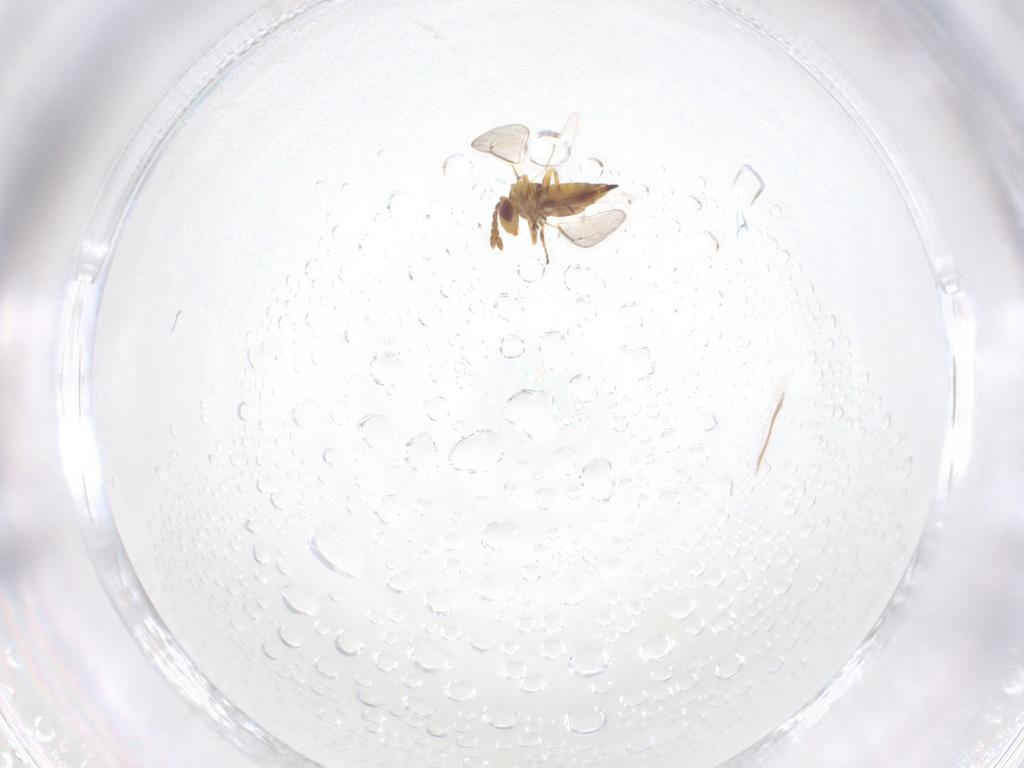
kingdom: Animalia
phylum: Arthropoda
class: Insecta
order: Hymenoptera
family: Eulophidae
